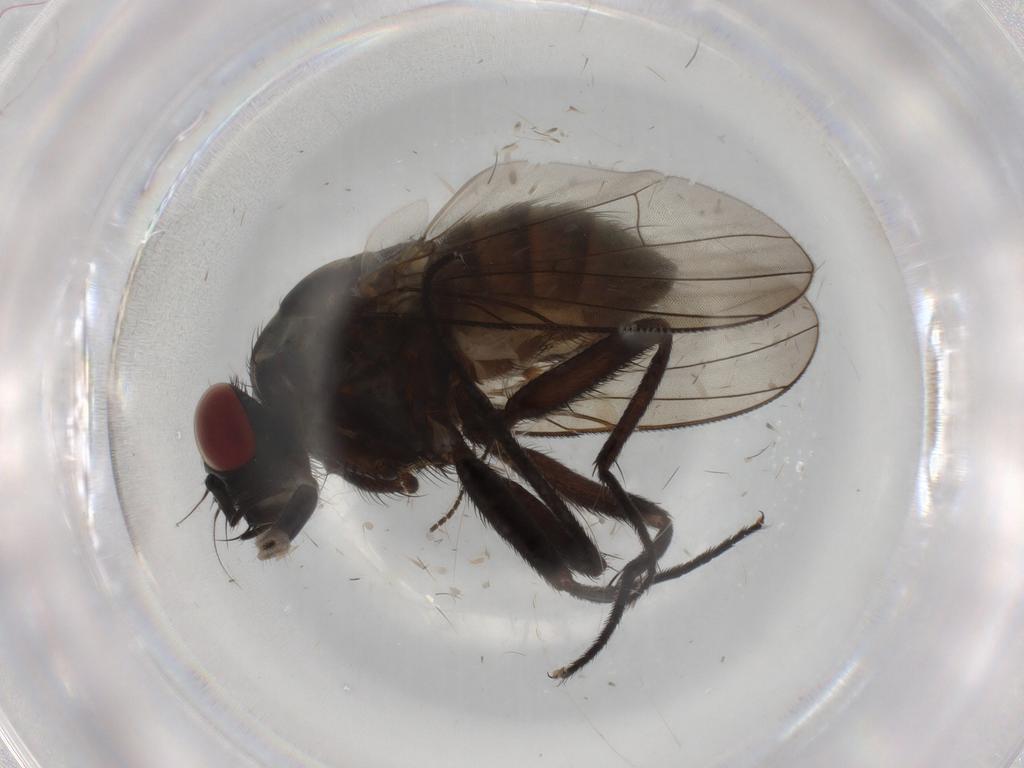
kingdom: Animalia
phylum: Arthropoda
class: Insecta
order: Diptera
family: Muscidae
